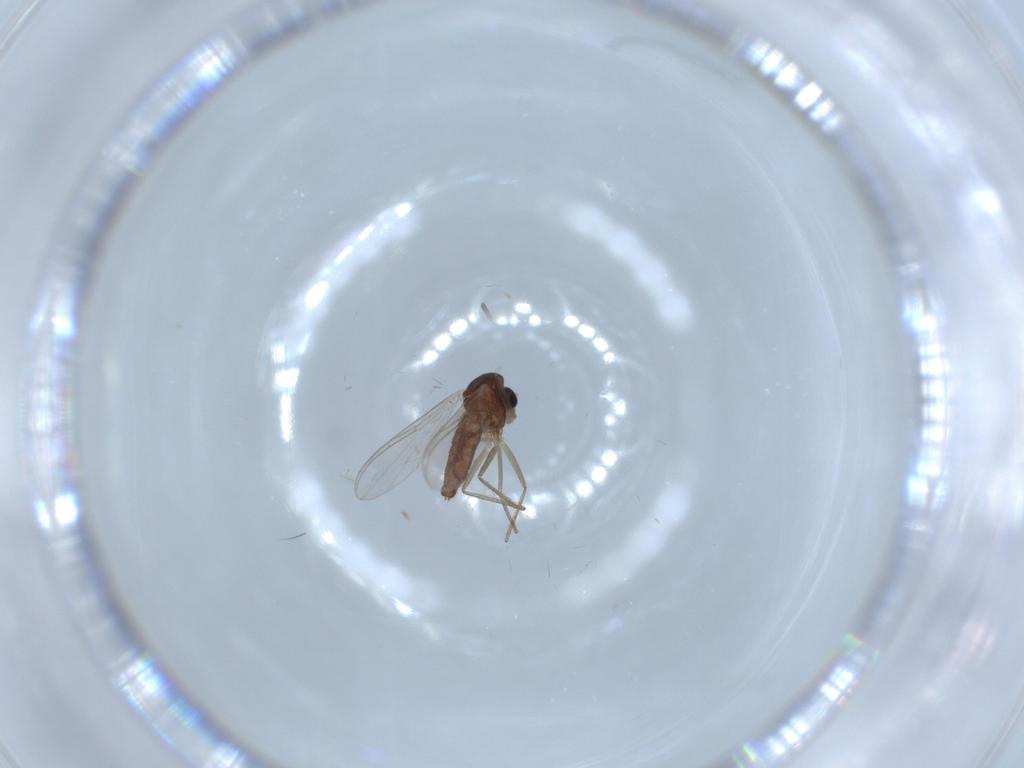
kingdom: Animalia
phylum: Arthropoda
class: Insecta
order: Diptera
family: Chironomidae
